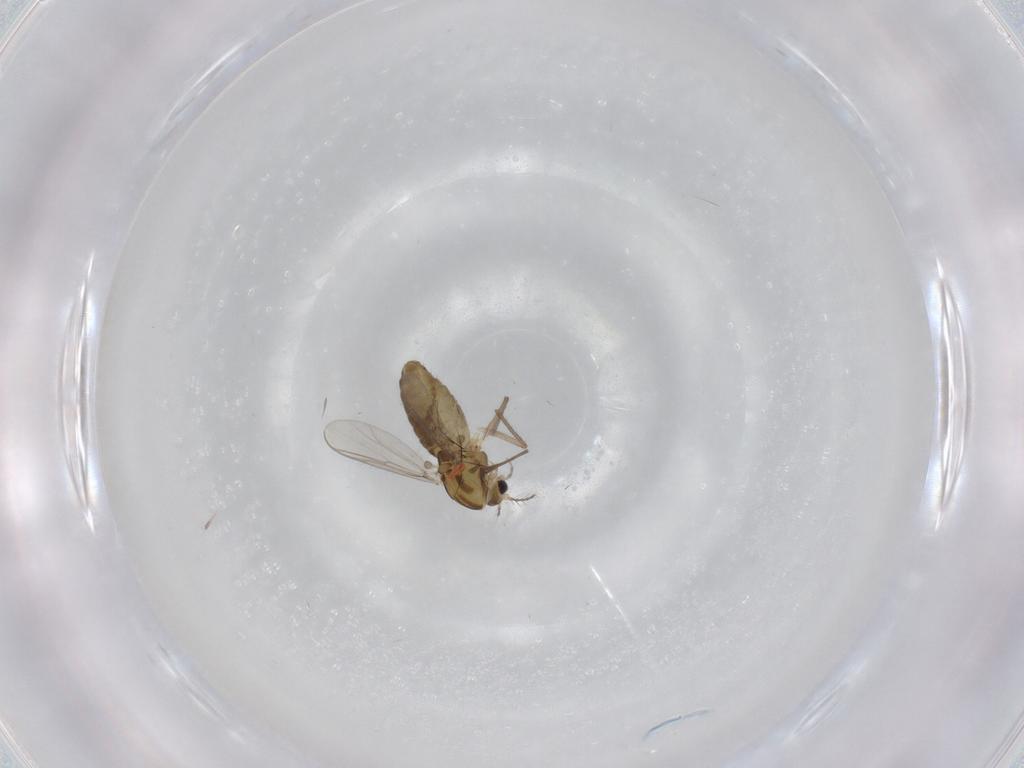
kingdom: Animalia
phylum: Arthropoda
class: Insecta
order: Diptera
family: Chironomidae
